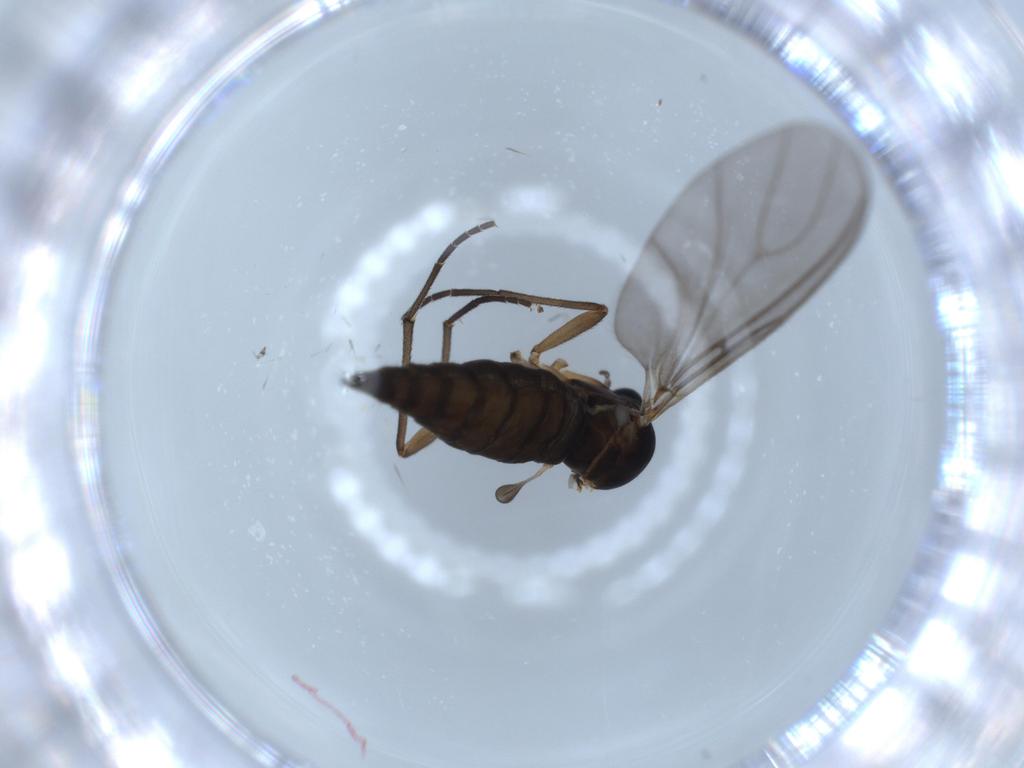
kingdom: Animalia
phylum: Arthropoda
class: Insecta
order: Diptera
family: Sciaridae
